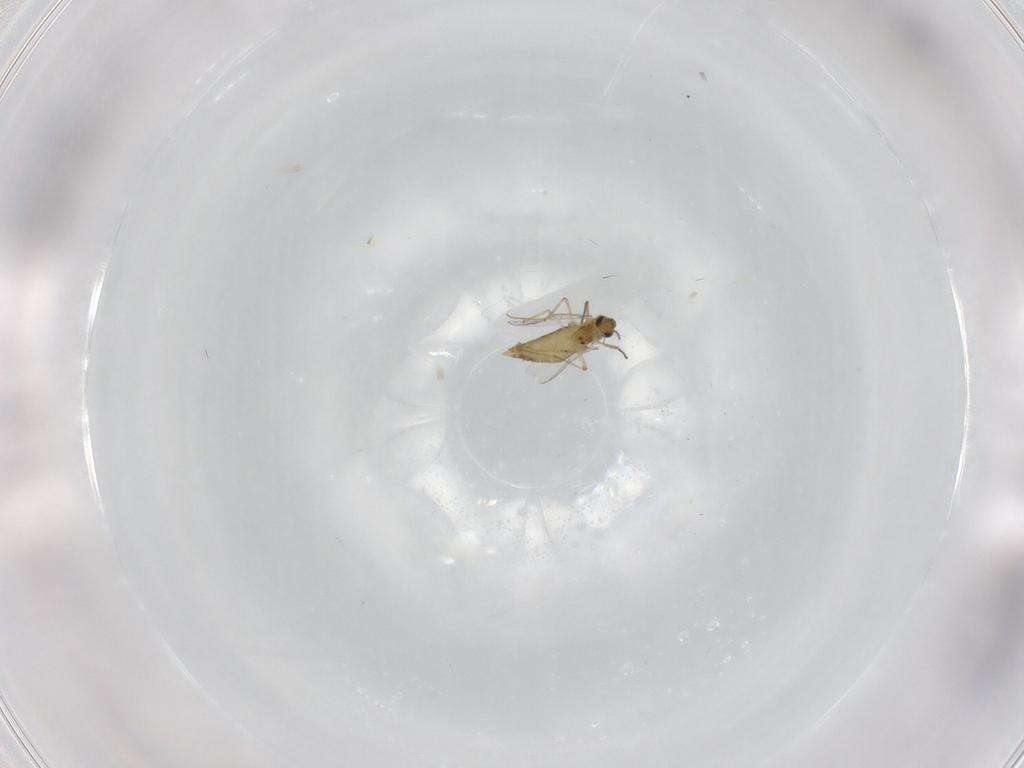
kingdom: Animalia
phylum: Arthropoda
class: Insecta
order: Diptera
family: Chironomidae
